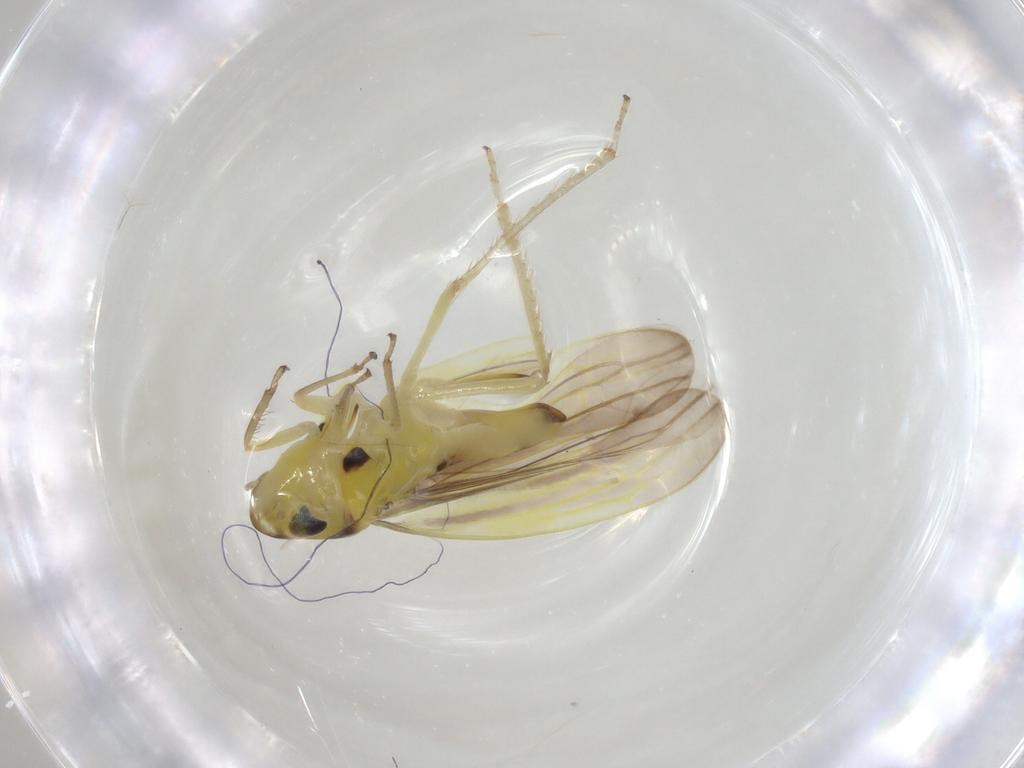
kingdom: Animalia
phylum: Arthropoda
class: Insecta
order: Hemiptera
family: Cicadellidae
